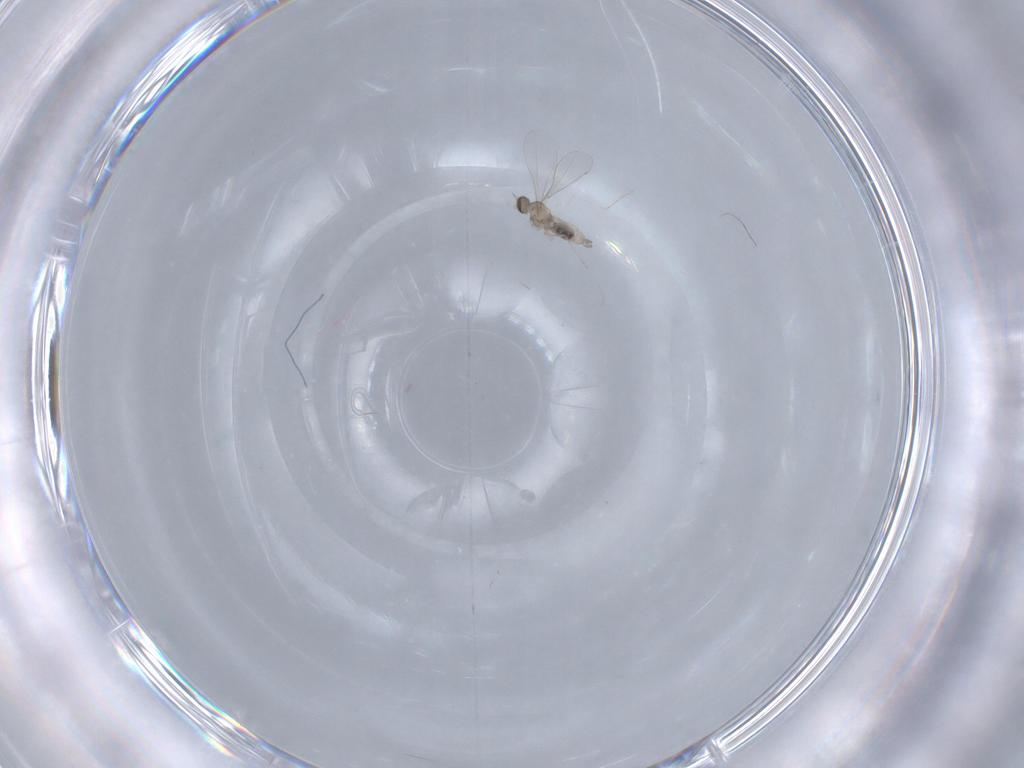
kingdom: Animalia
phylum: Arthropoda
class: Insecta
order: Diptera
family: Cecidomyiidae
